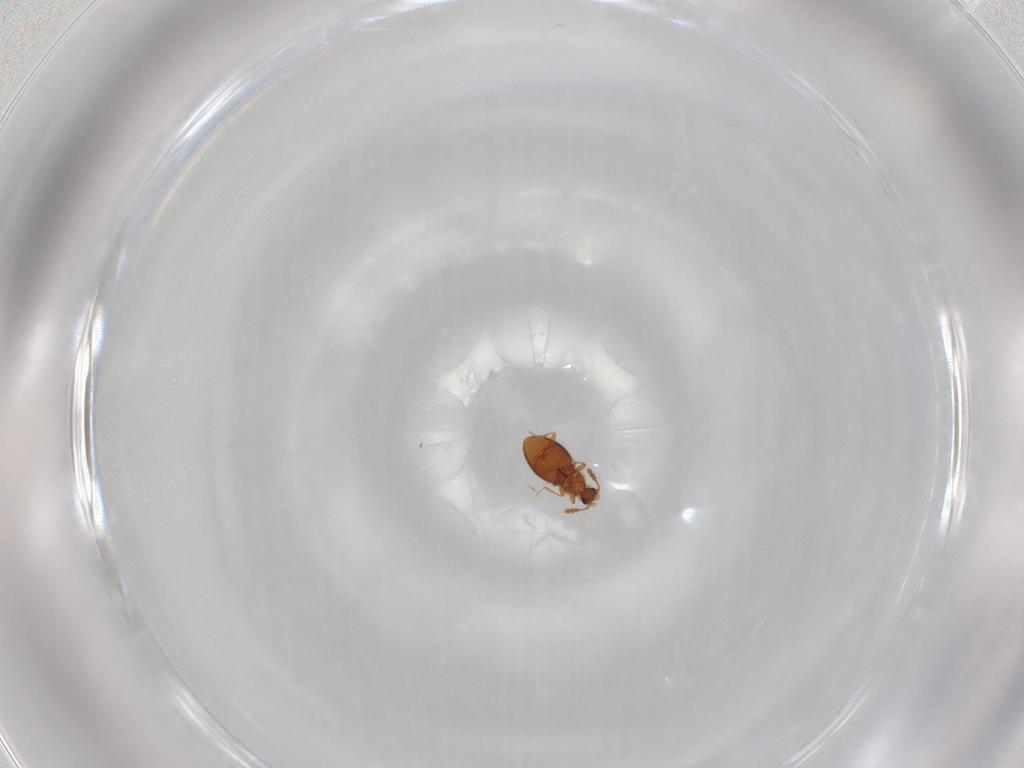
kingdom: Animalia
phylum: Arthropoda
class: Insecta
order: Coleoptera
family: Staphylinidae
